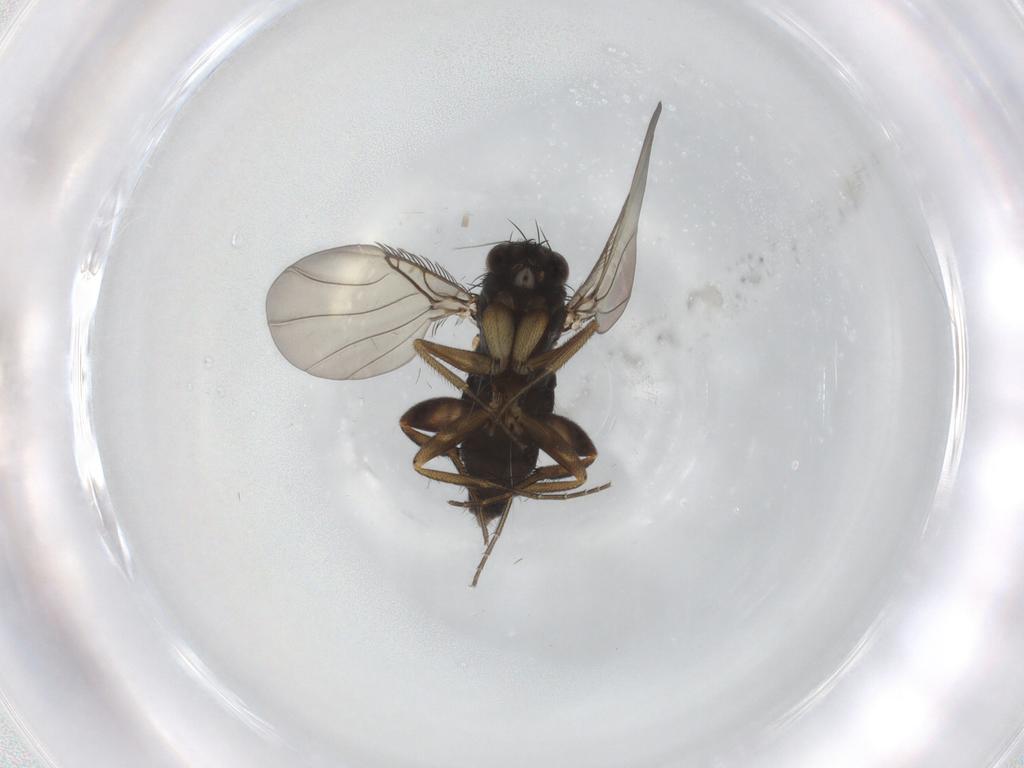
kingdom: Animalia
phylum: Arthropoda
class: Insecta
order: Diptera
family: Phoridae
